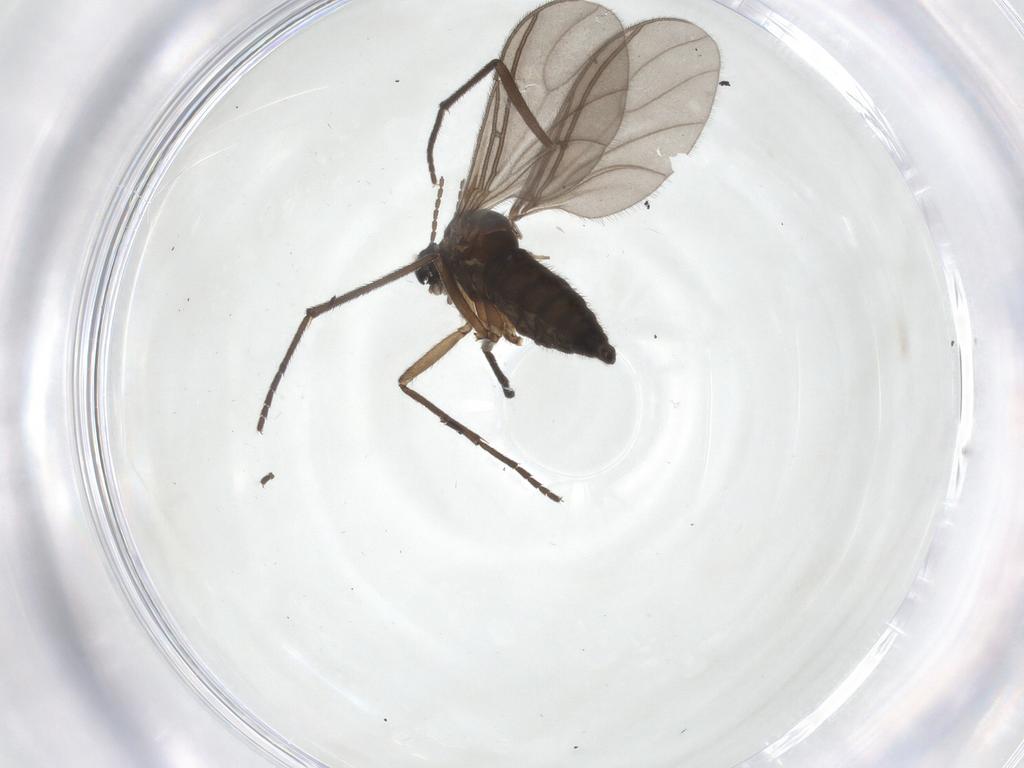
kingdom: Animalia
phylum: Arthropoda
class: Insecta
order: Diptera
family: Sciaridae
